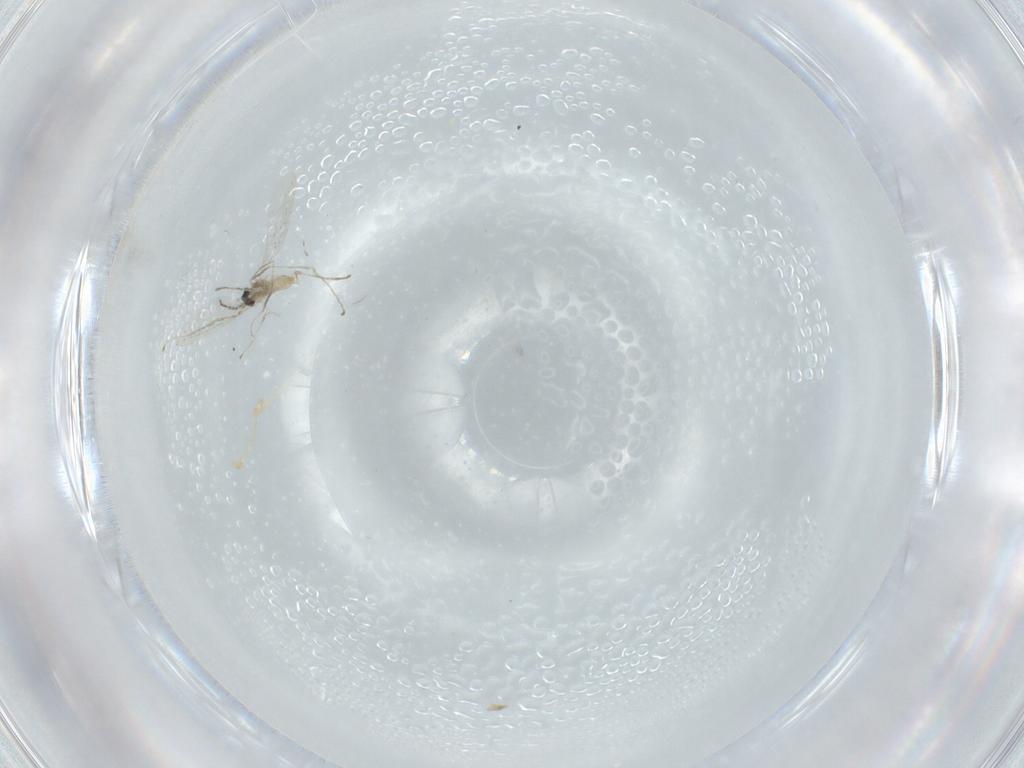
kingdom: Animalia
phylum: Arthropoda
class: Insecta
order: Diptera
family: Cecidomyiidae
